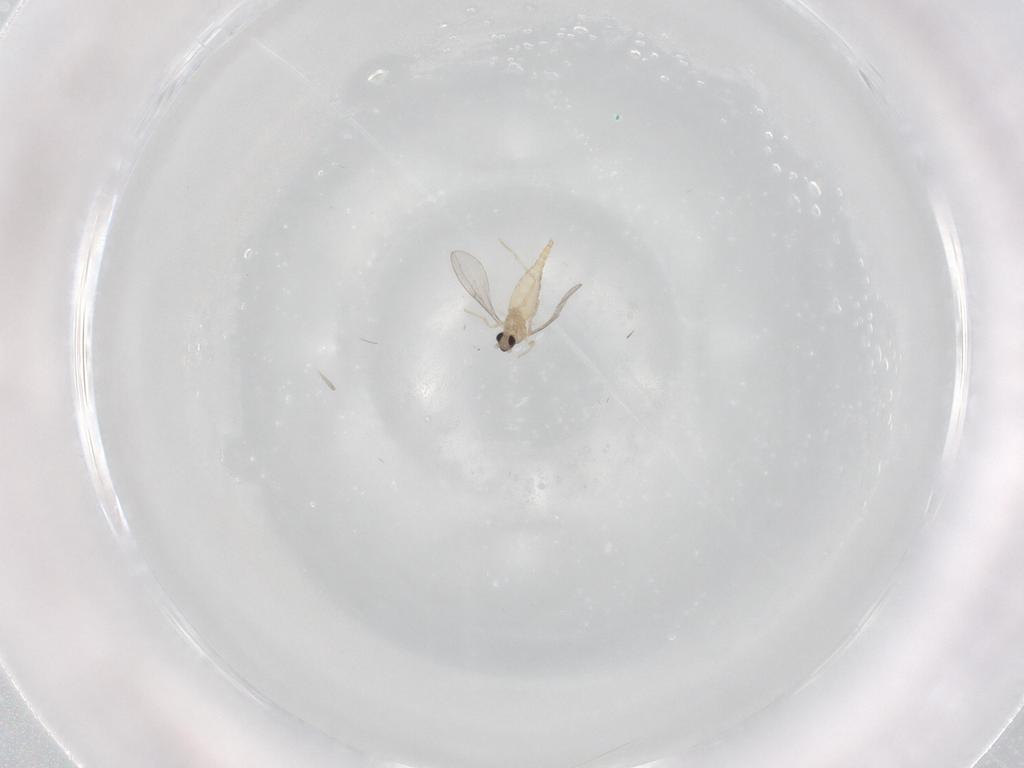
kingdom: Animalia
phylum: Arthropoda
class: Insecta
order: Diptera
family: Cecidomyiidae
